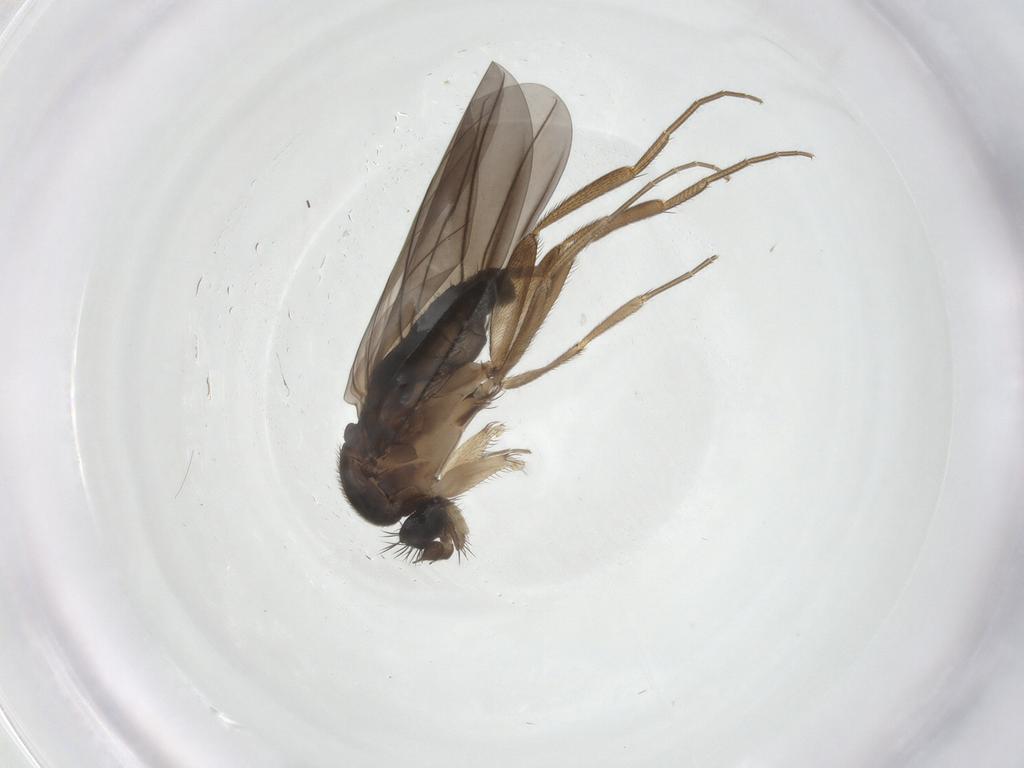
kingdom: Animalia
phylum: Arthropoda
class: Insecta
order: Diptera
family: Phoridae
